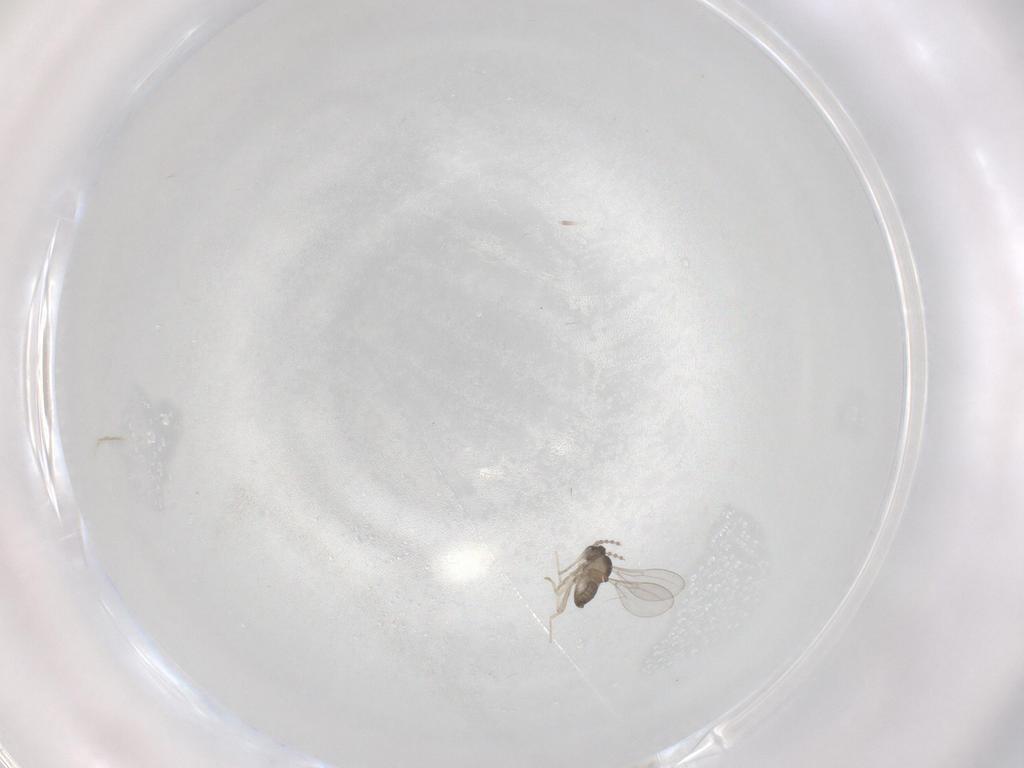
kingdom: Animalia
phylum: Arthropoda
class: Insecta
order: Diptera
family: Cecidomyiidae
